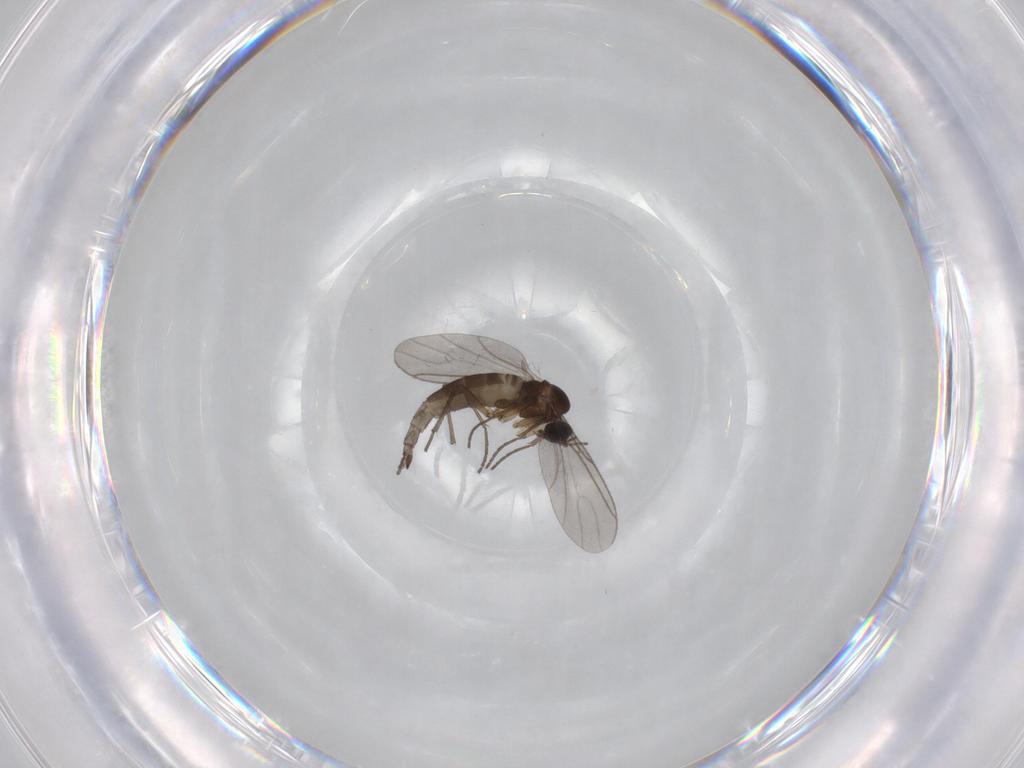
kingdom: Animalia
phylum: Arthropoda
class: Insecta
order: Diptera
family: Sciaridae
